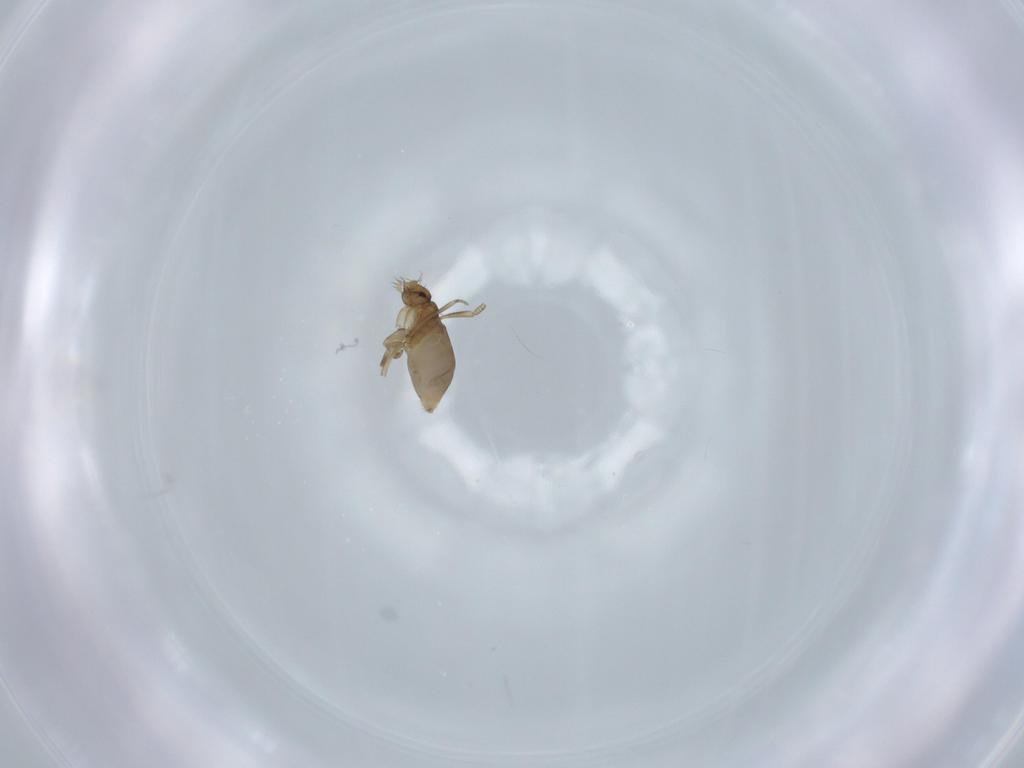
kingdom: Animalia
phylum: Arthropoda
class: Insecta
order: Diptera
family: Phoridae
